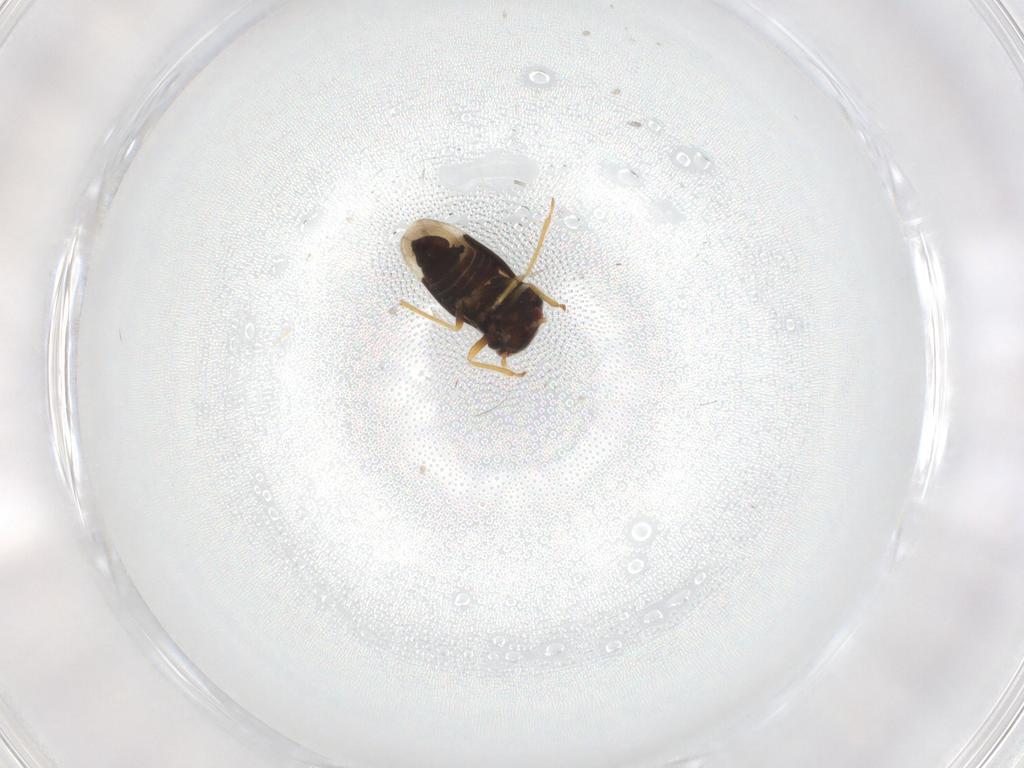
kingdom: Animalia
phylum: Arthropoda
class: Insecta
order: Hemiptera
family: Schizopteridae
